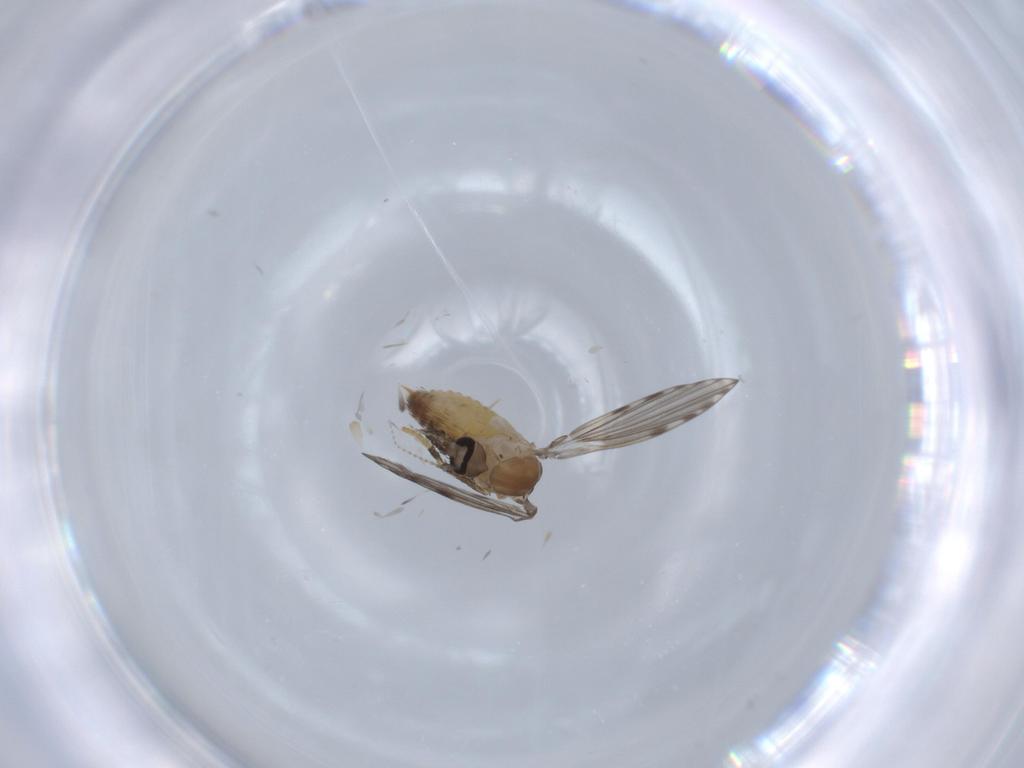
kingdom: Animalia
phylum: Arthropoda
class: Insecta
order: Diptera
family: Psychodidae
